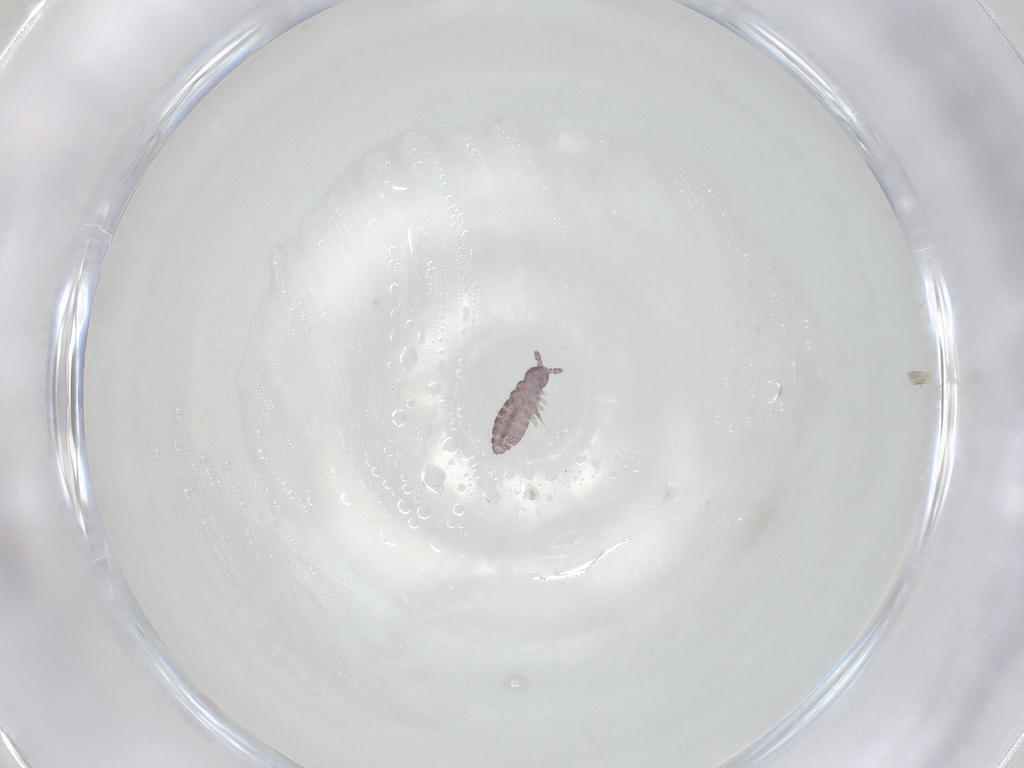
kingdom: Animalia
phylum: Arthropoda
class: Collembola
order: Poduromorpha
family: Hypogastruridae
